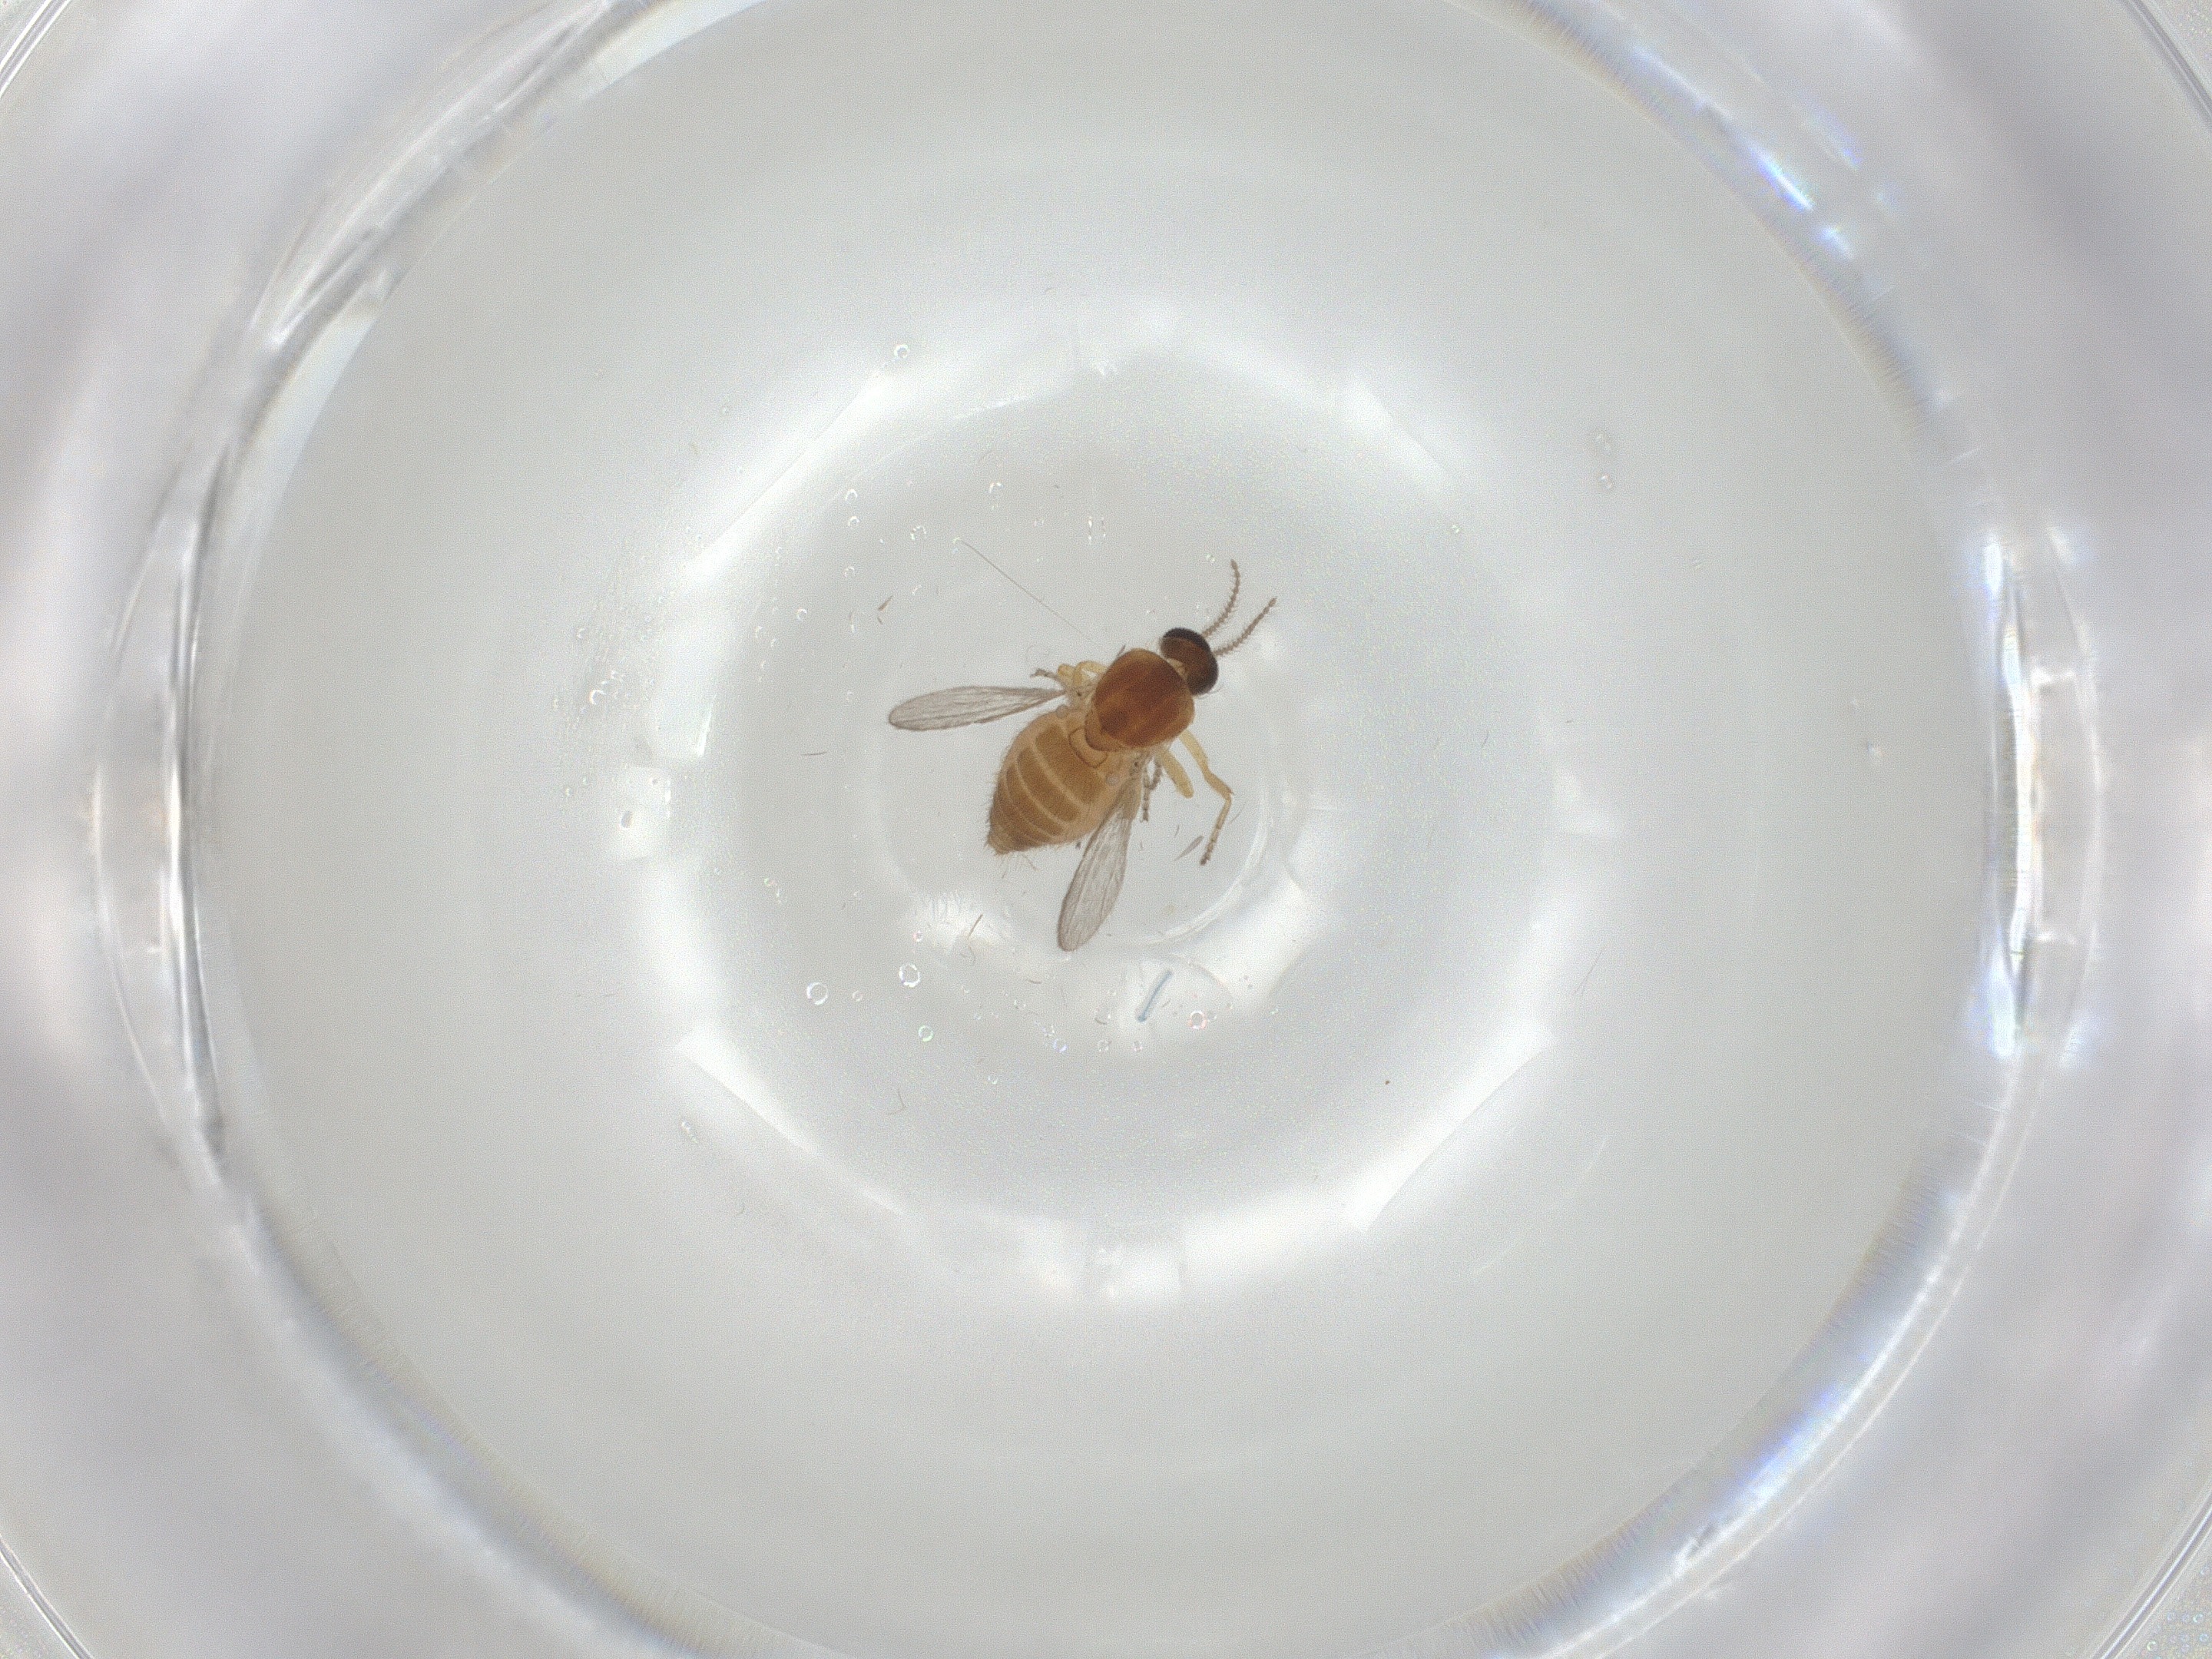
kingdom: Animalia
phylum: Arthropoda
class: Insecta
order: Diptera
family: Ceratopogonidae
